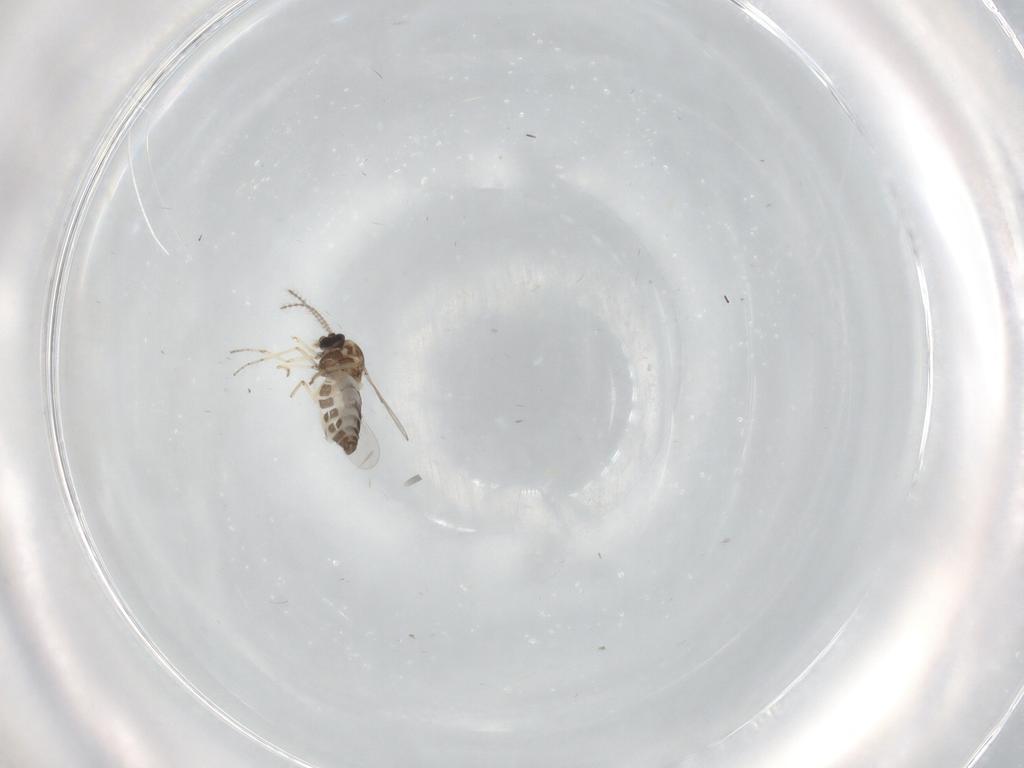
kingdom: Animalia
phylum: Arthropoda
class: Insecta
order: Diptera
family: Ceratopogonidae
